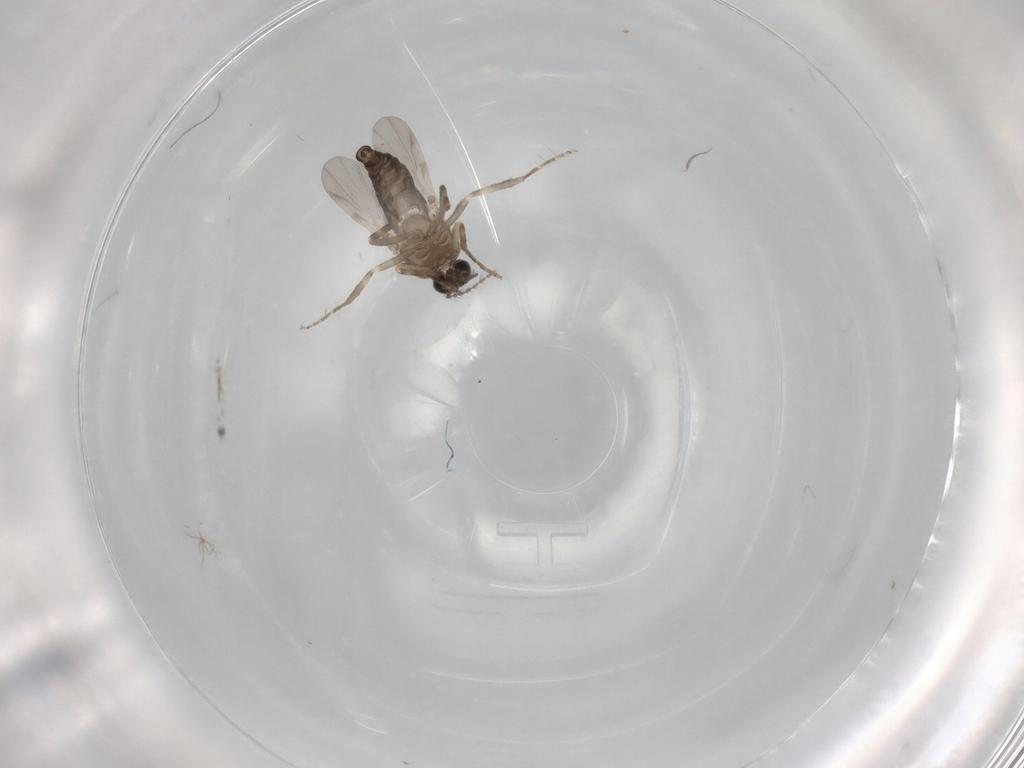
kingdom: Animalia
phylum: Arthropoda
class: Insecta
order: Diptera
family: Ceratopogonidae
